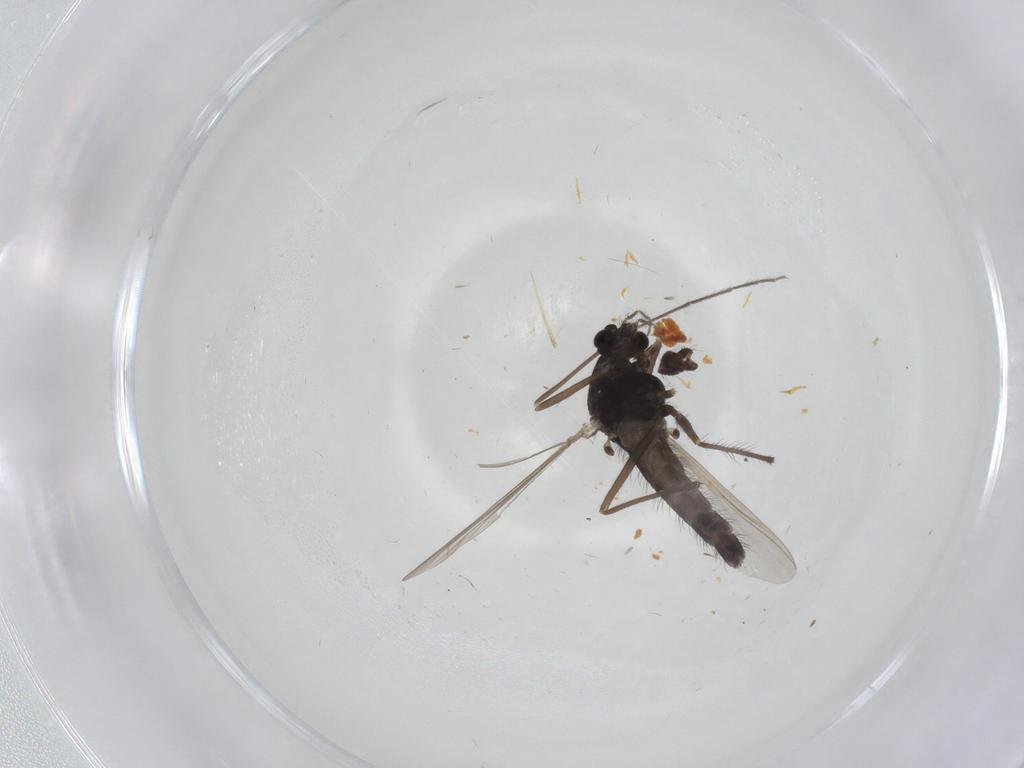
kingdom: Animalia
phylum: Arthropoda
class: Insecta
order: Diptera
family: Chironomidae
